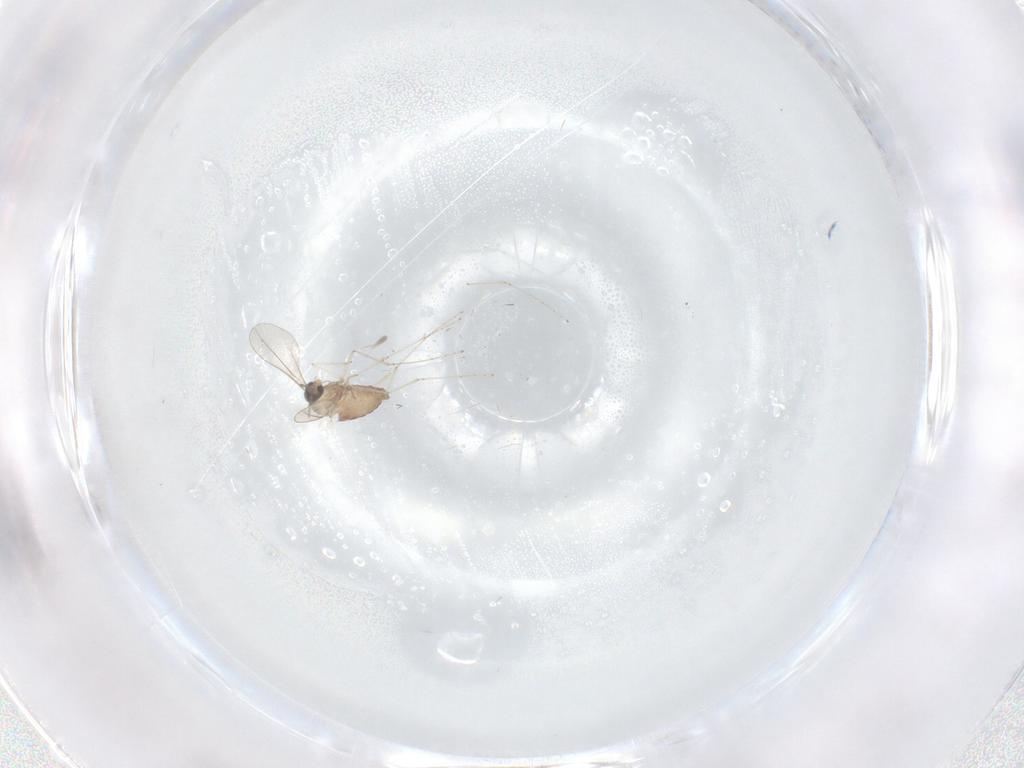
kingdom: Animalia
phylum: Arthropoda
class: Insecta
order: Diptera
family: Cecidomyiidae
